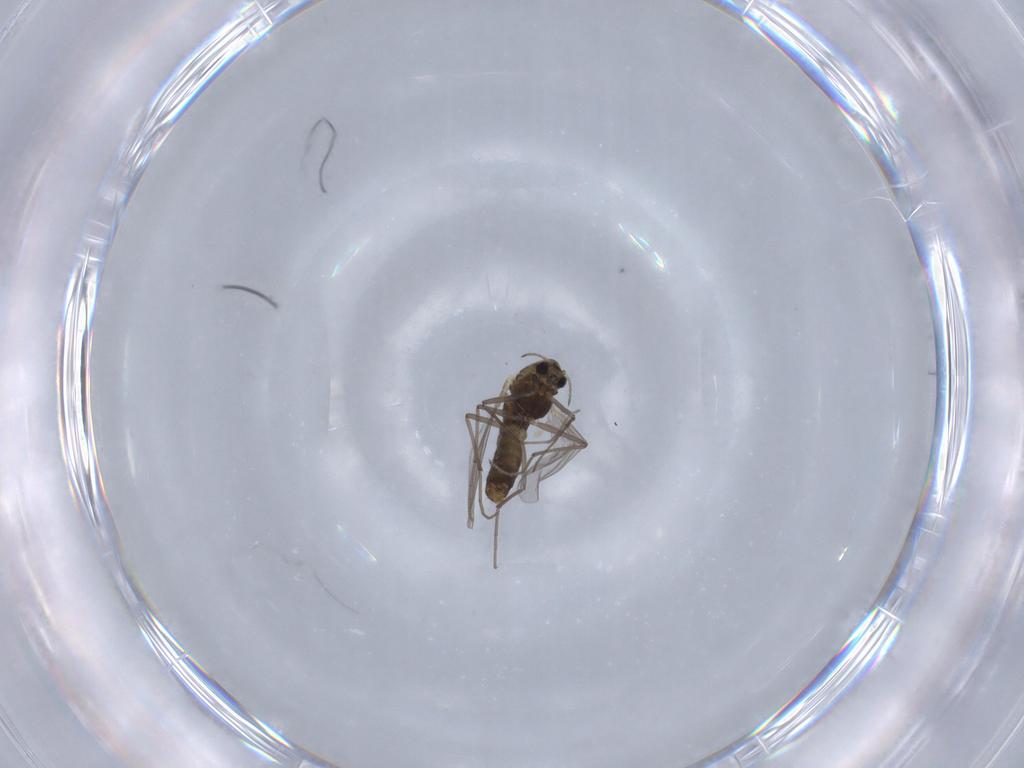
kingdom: Animalia
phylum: Arthropoda
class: Insecta
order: Diptera
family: Chironomidae
